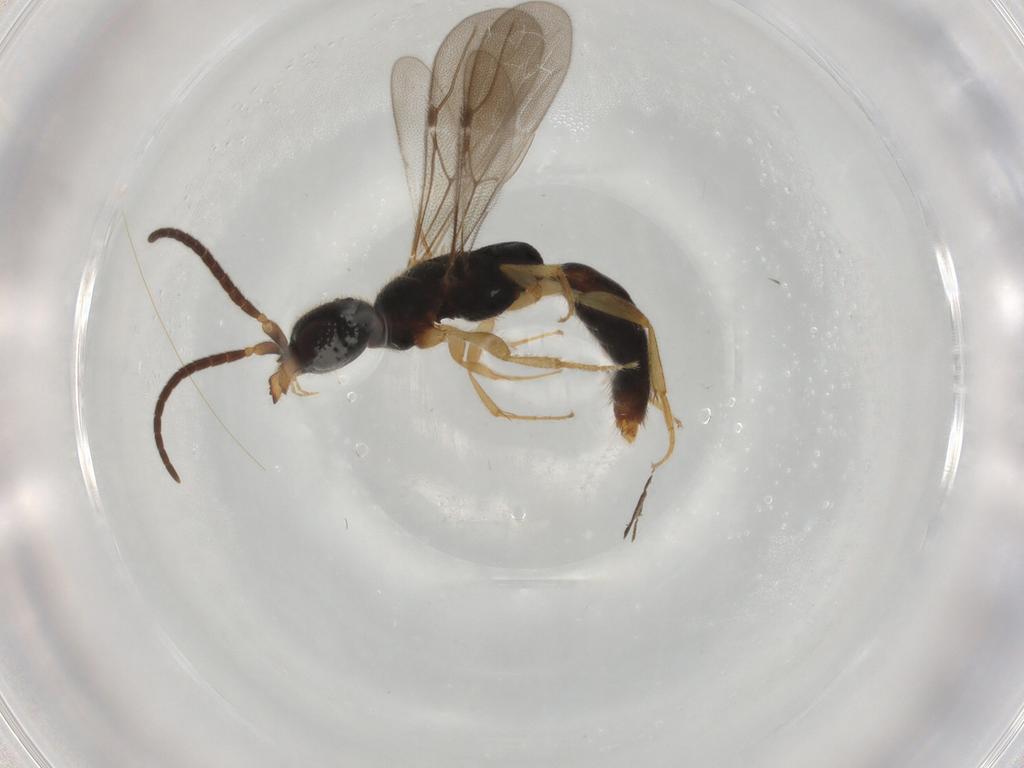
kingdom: Animalia
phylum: Arthropoda
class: Insecta
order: Hymenoptera
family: Bethylidae
